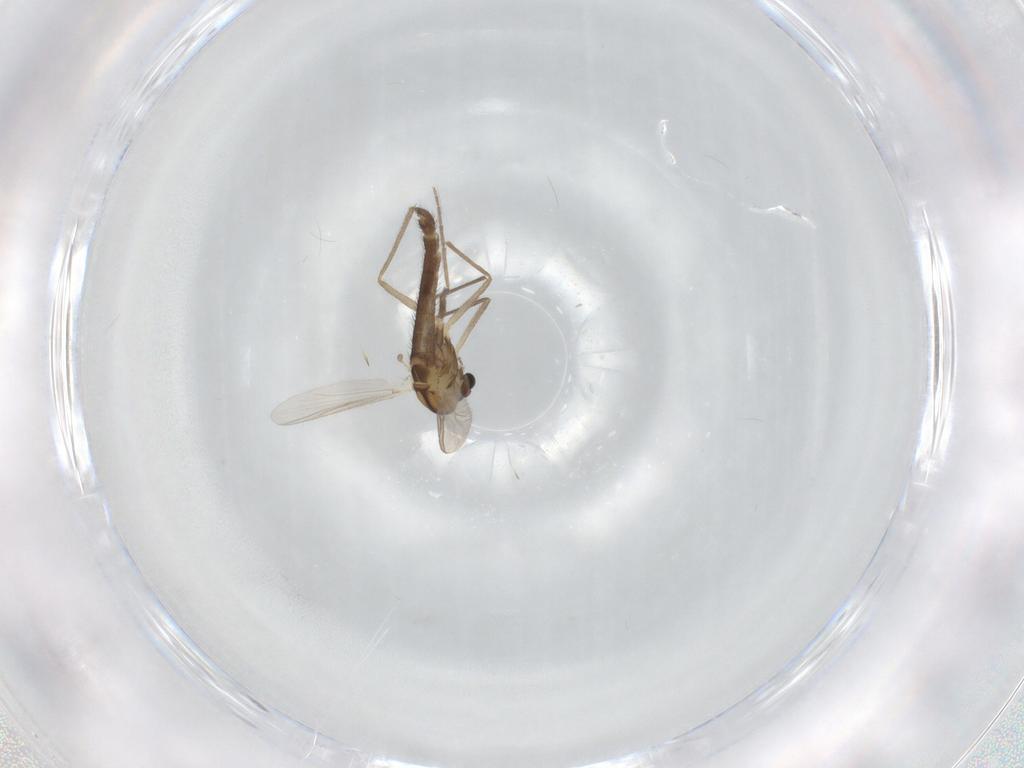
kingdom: Animalia
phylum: Arthropoda
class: Insecta
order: Diptera
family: Chironomidae
